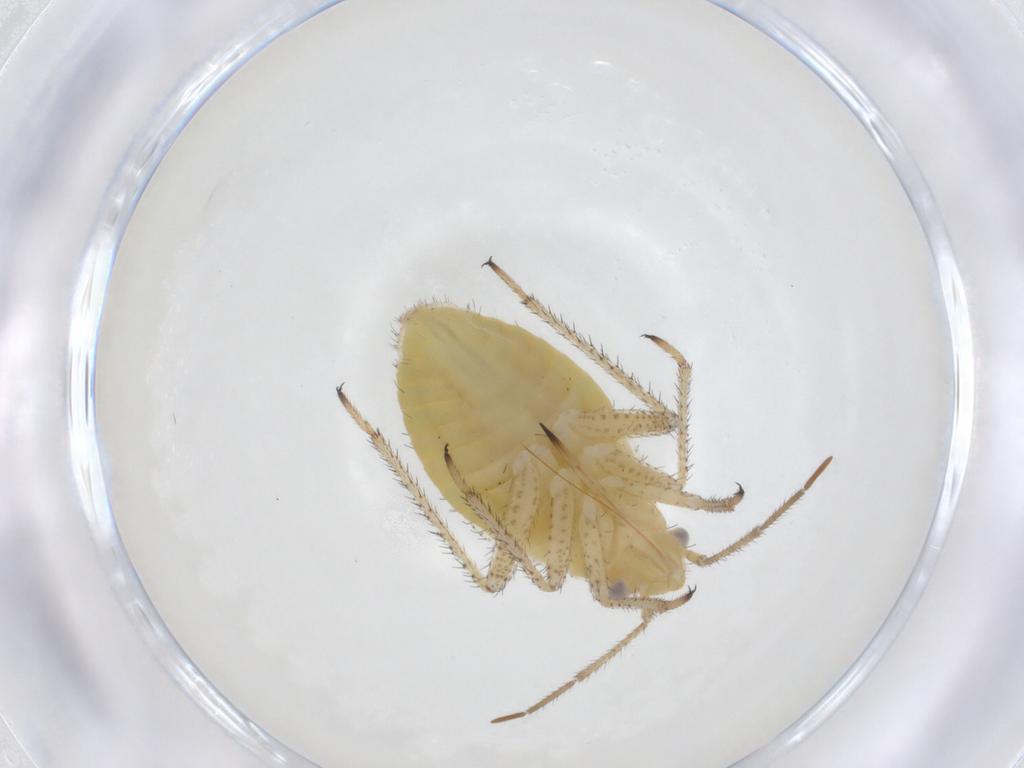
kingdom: Animalia
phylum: Arthropoda
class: Insecta
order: Hemiptera
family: Miridae
